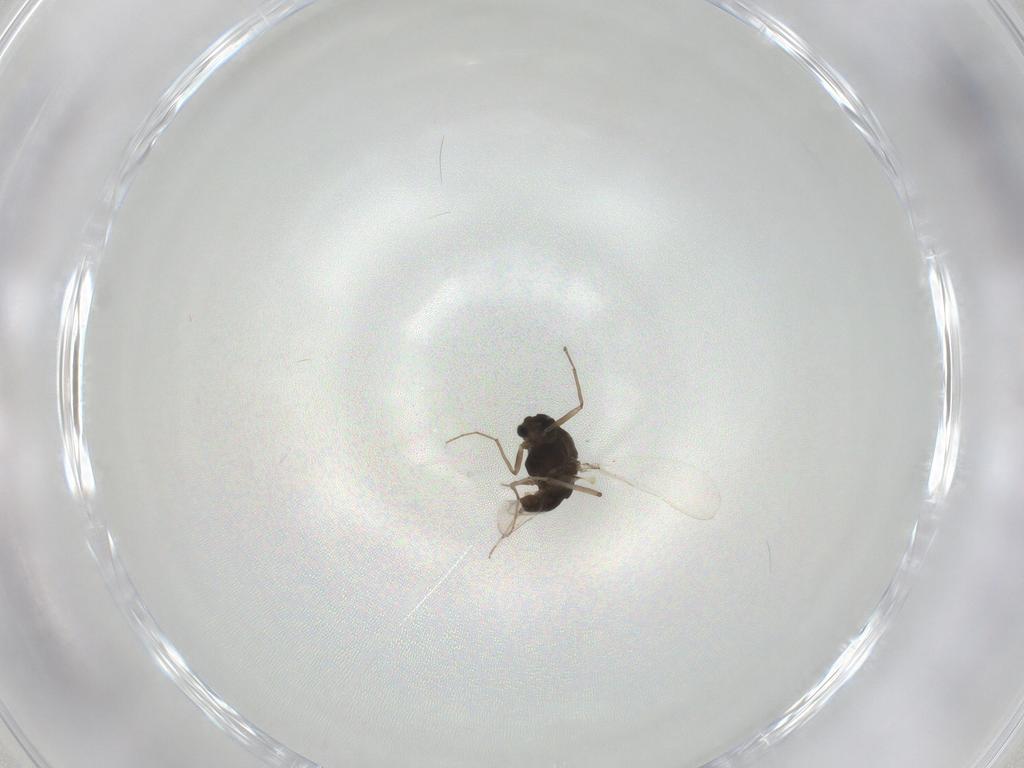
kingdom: Animalia
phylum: Arthropoda
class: Insecta
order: Diptera
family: Chironomidae
